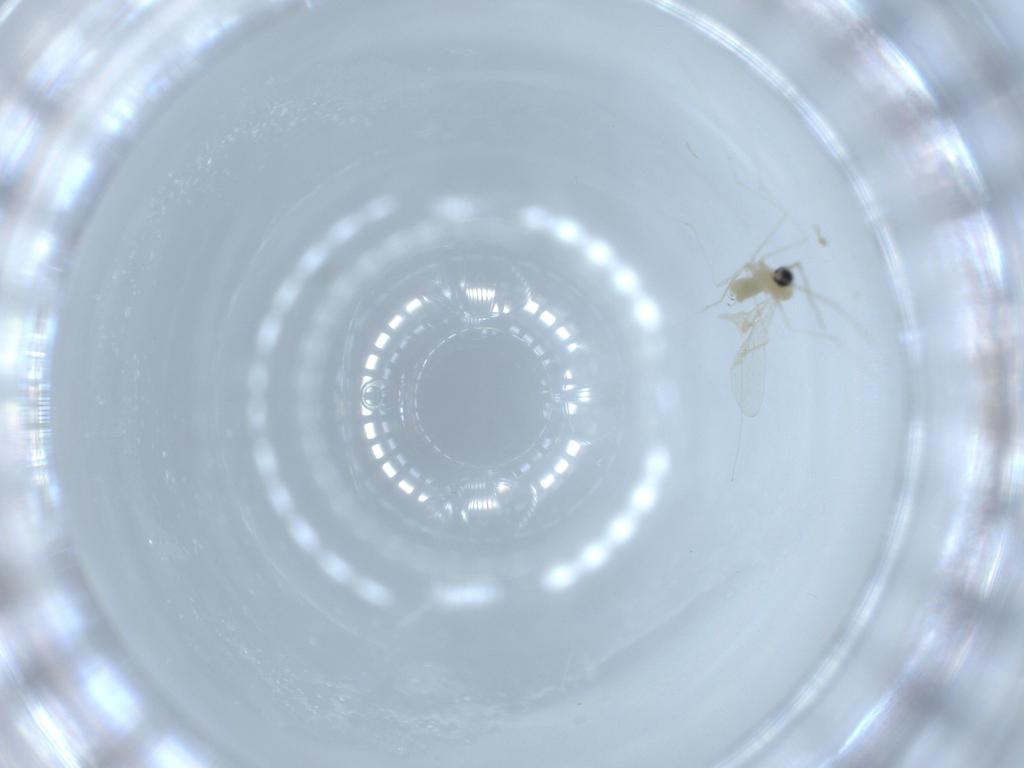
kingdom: Animalia
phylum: Arthropoda
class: Insecta
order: Diptera
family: Cecidomyiidae
